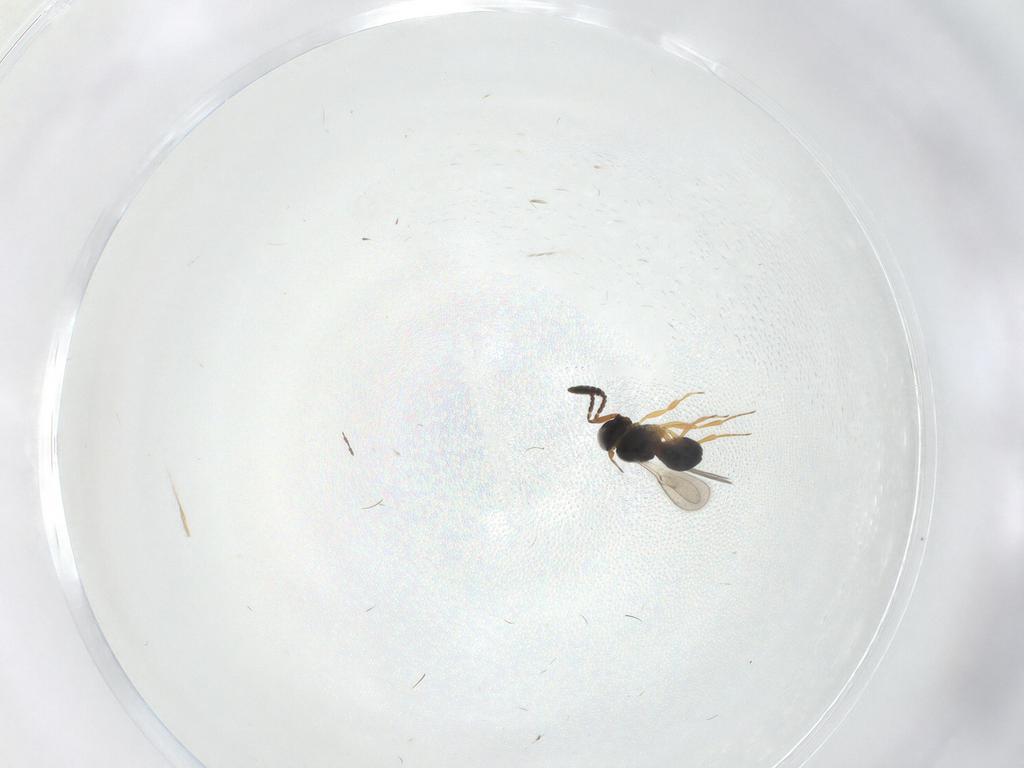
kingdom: Animalia
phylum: Arthropoda
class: Insecta
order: Hymenoptera
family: Scelionidae
